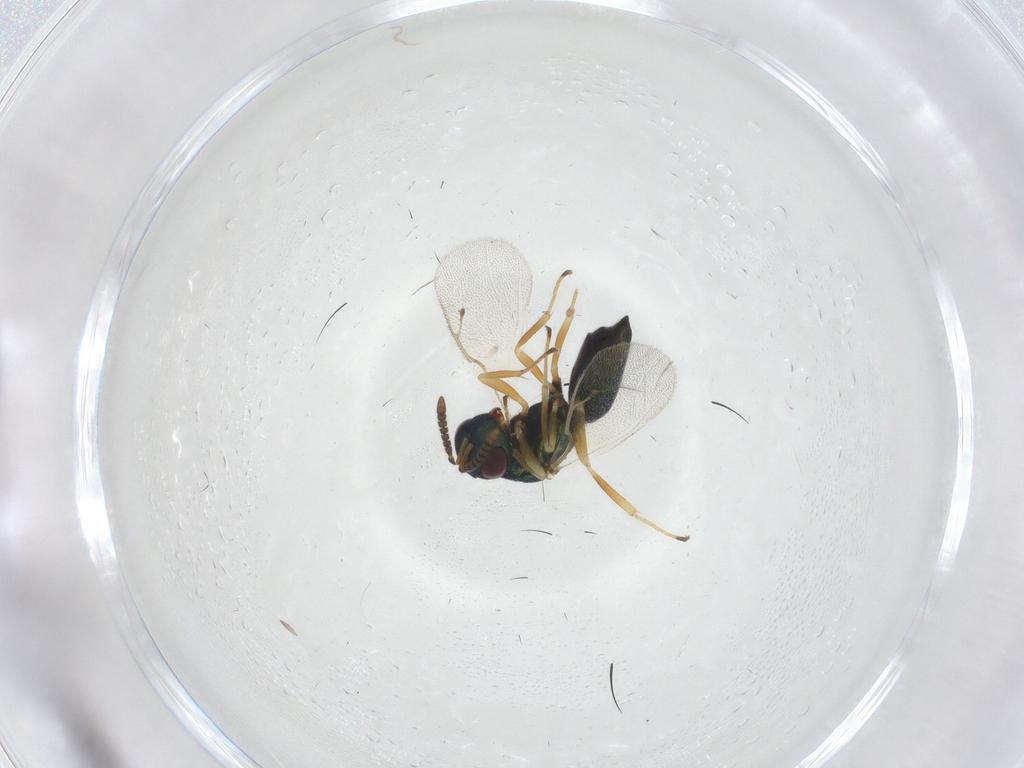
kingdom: Animalia
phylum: Arthropoda
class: Insecta
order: Hymenoptera
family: Pteromalidae
